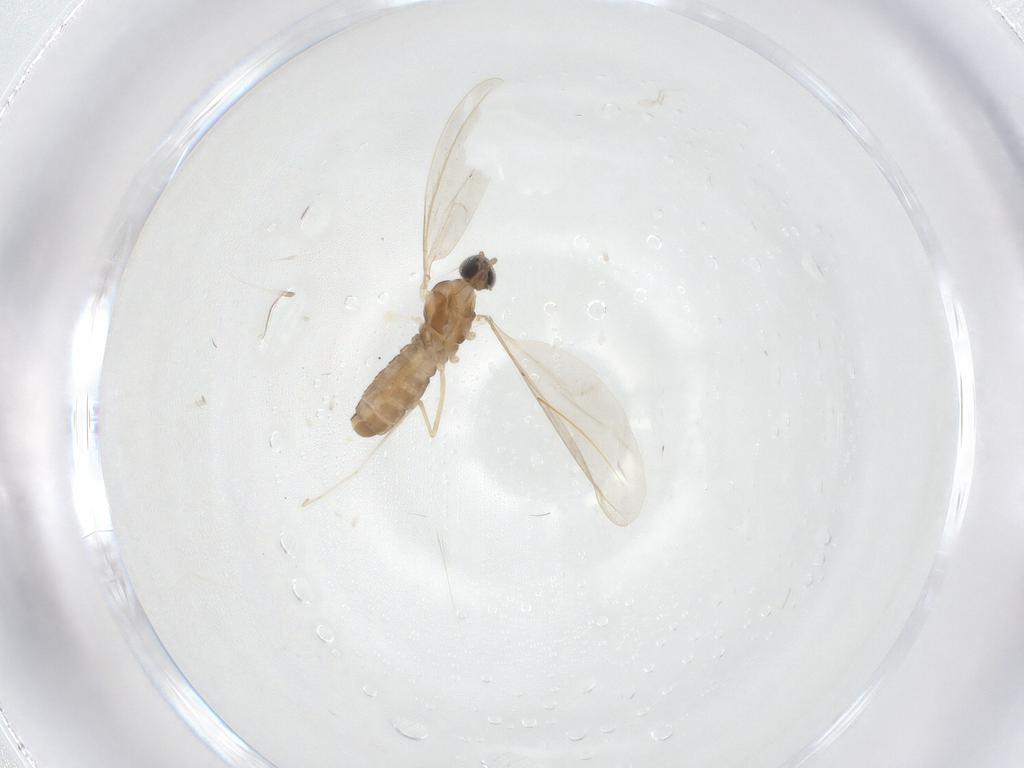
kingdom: Animalia
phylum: Arthropoda
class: Insecta
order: Diptera
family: Cecidomyiidae
